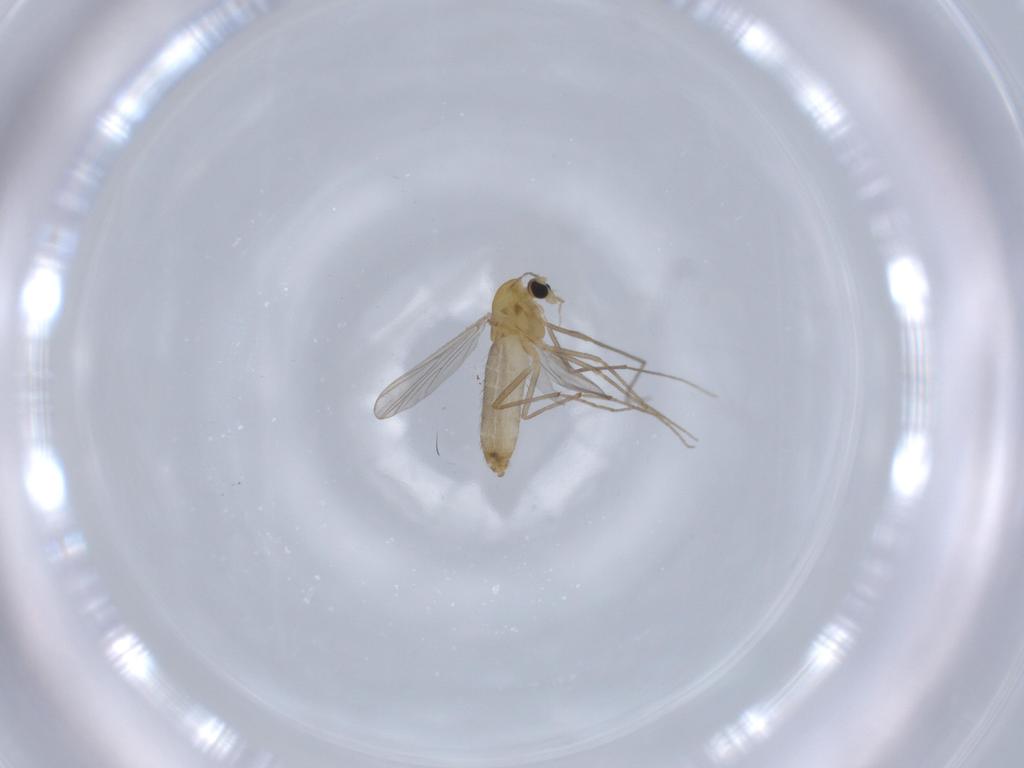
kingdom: Animalia
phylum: Arthropoda
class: Insecta
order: Diptera
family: Chironomidae
